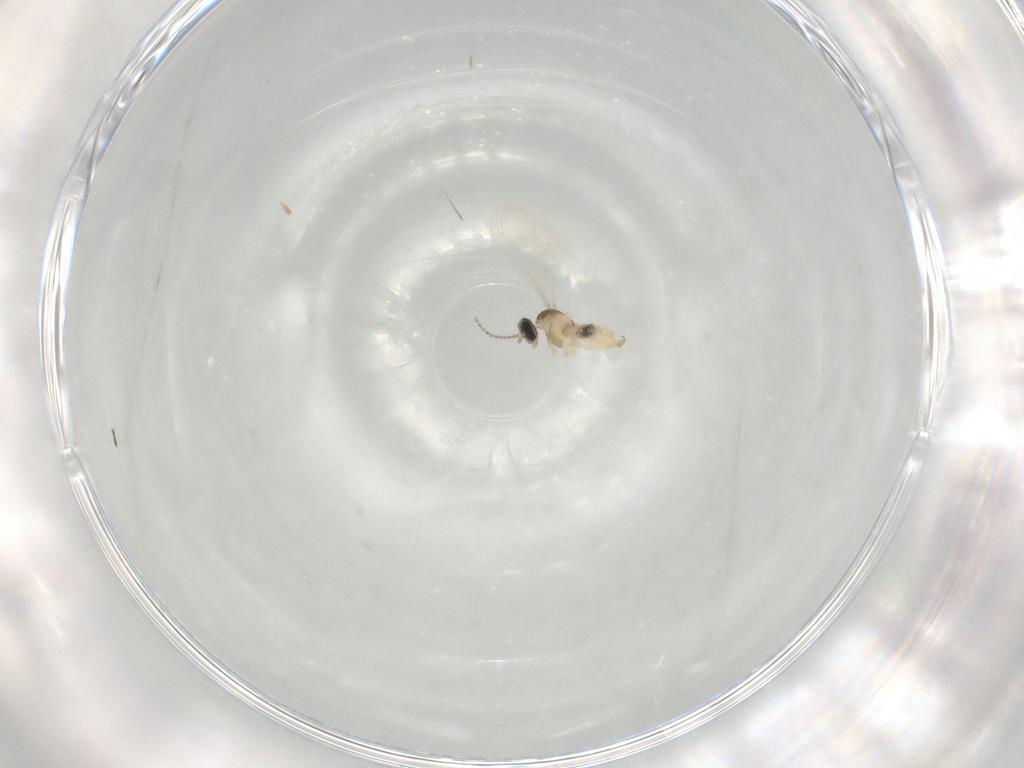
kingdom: Animalia
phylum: Arthropoda
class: Insecta
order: Diptera
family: Cecidomyiidae
